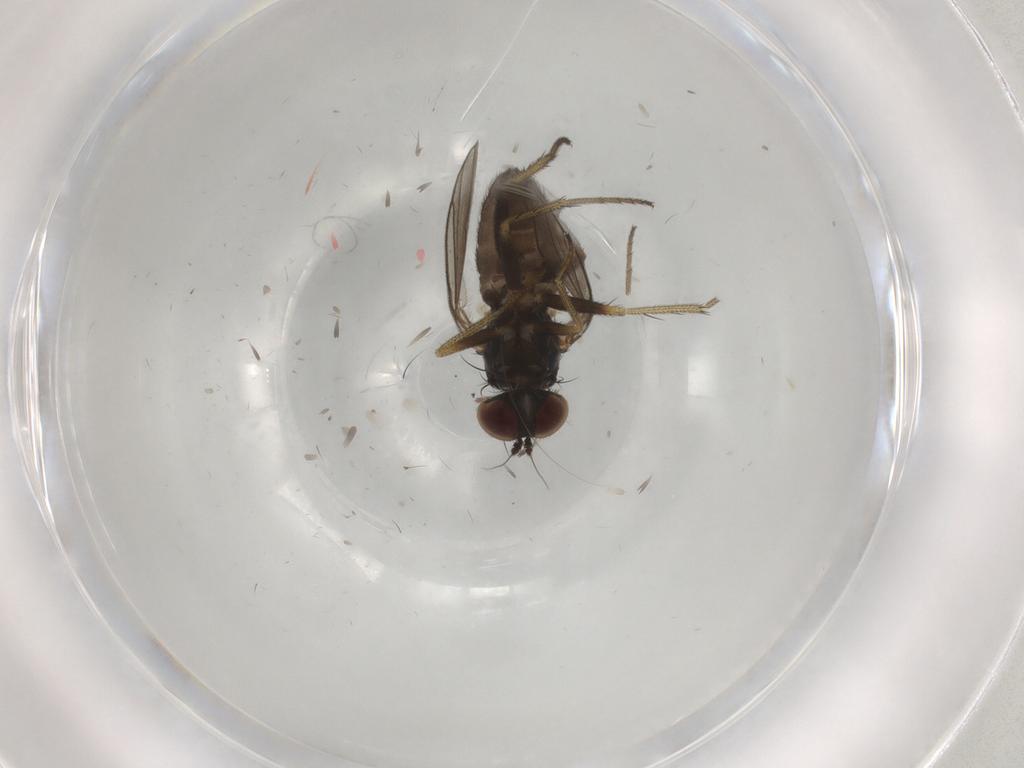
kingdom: Animalia
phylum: Arthropoda
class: Insecta
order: Diptera
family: Dolichopodidae
